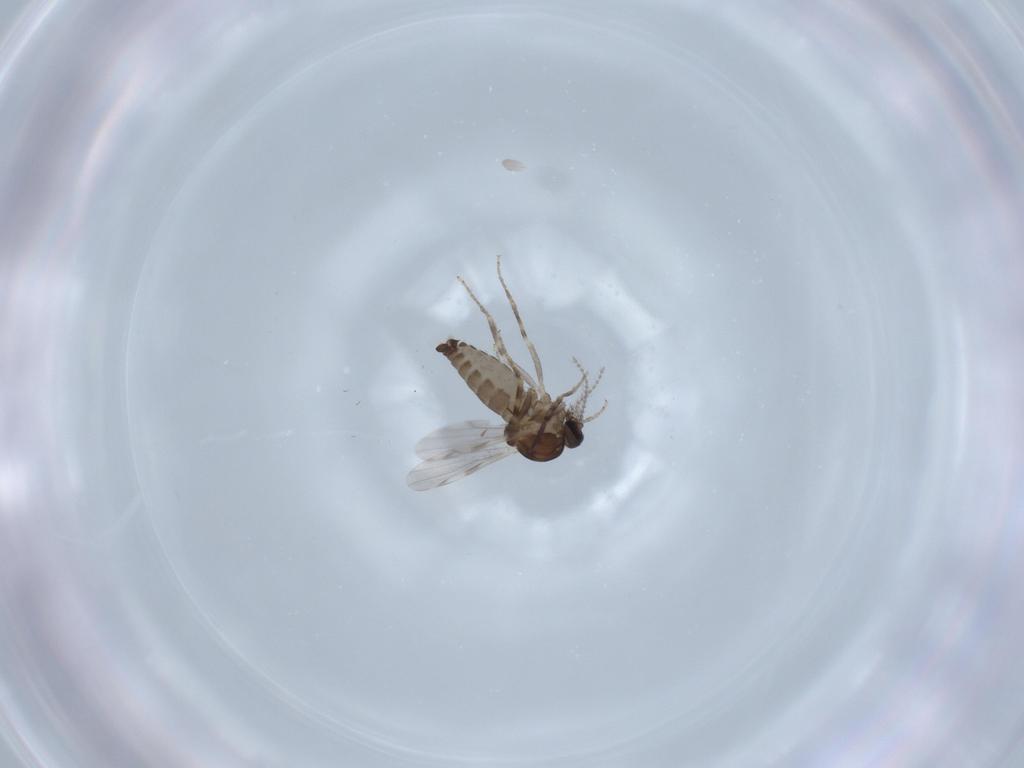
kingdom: Animalia
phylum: Arthropoda
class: Insecta
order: Diptera
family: Ceratopogonidae
